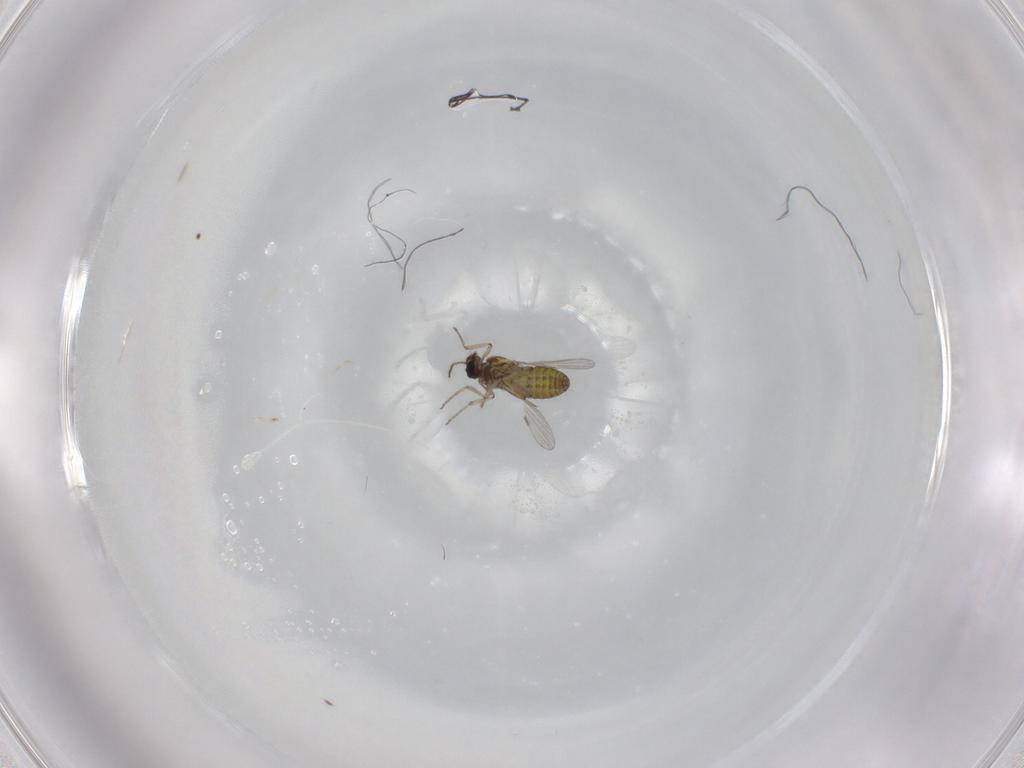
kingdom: Animalia
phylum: Arthropoda
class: Insecta
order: Diptera
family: Ceratopogonidae
